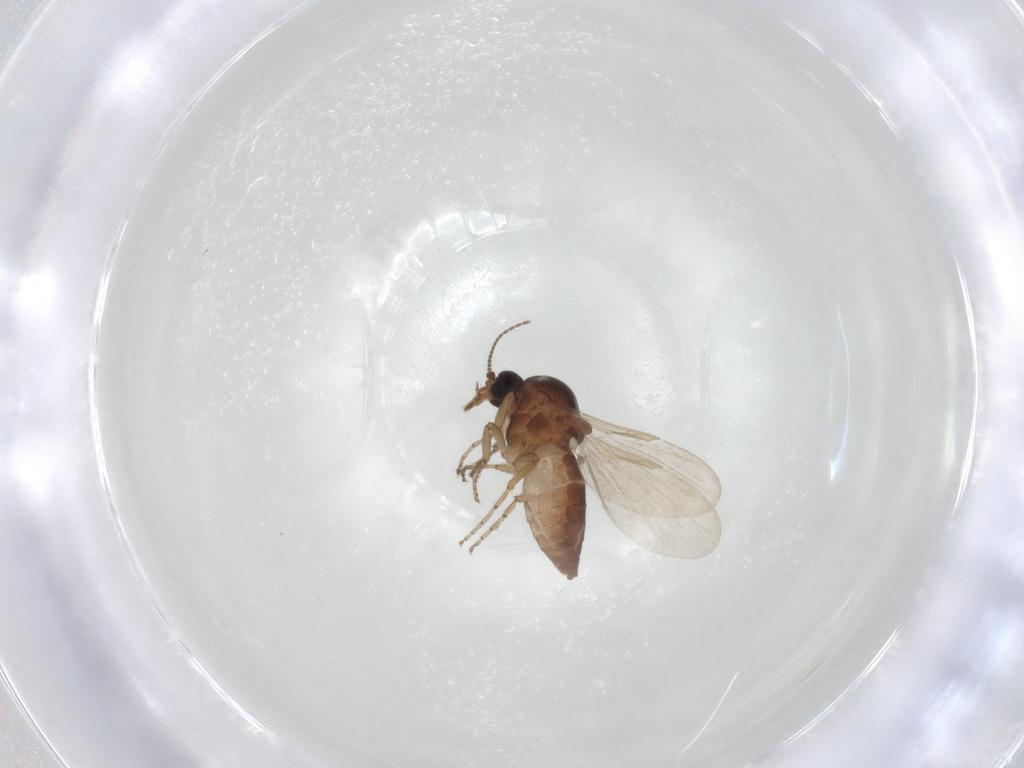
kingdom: Animalia
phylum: Arthropoda
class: Insecta
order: Diptera
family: Ceratopogonidae
